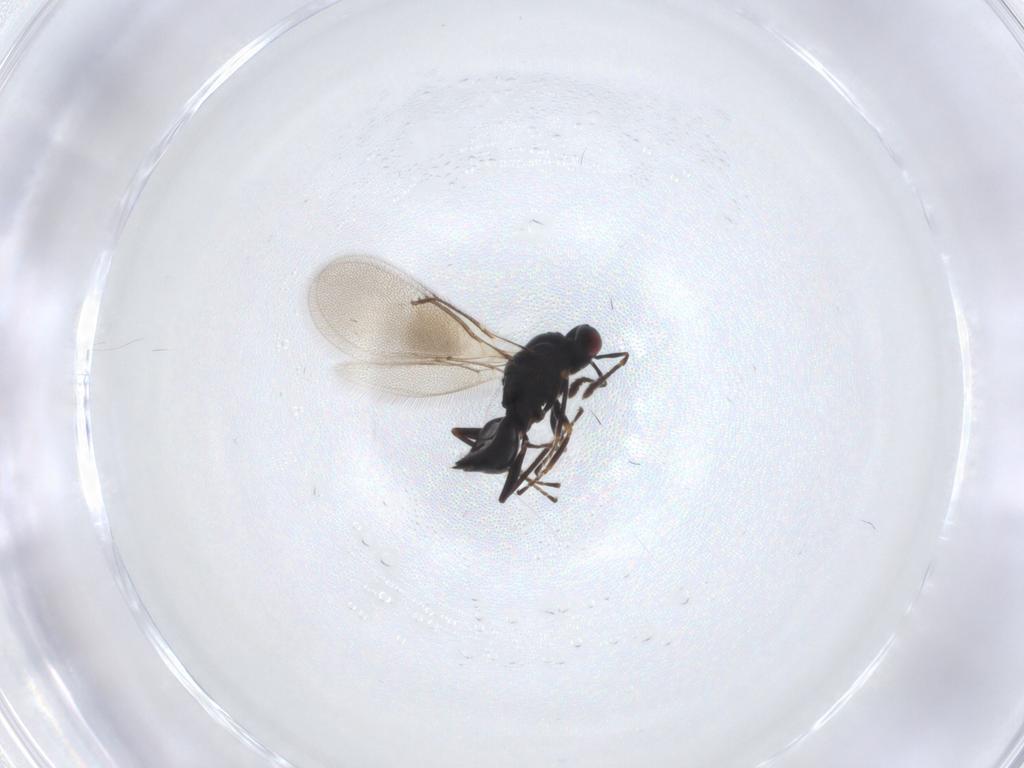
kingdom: Animalia
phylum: Arthropoda
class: Insecta
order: Hymenoptera
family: Eulophidae
